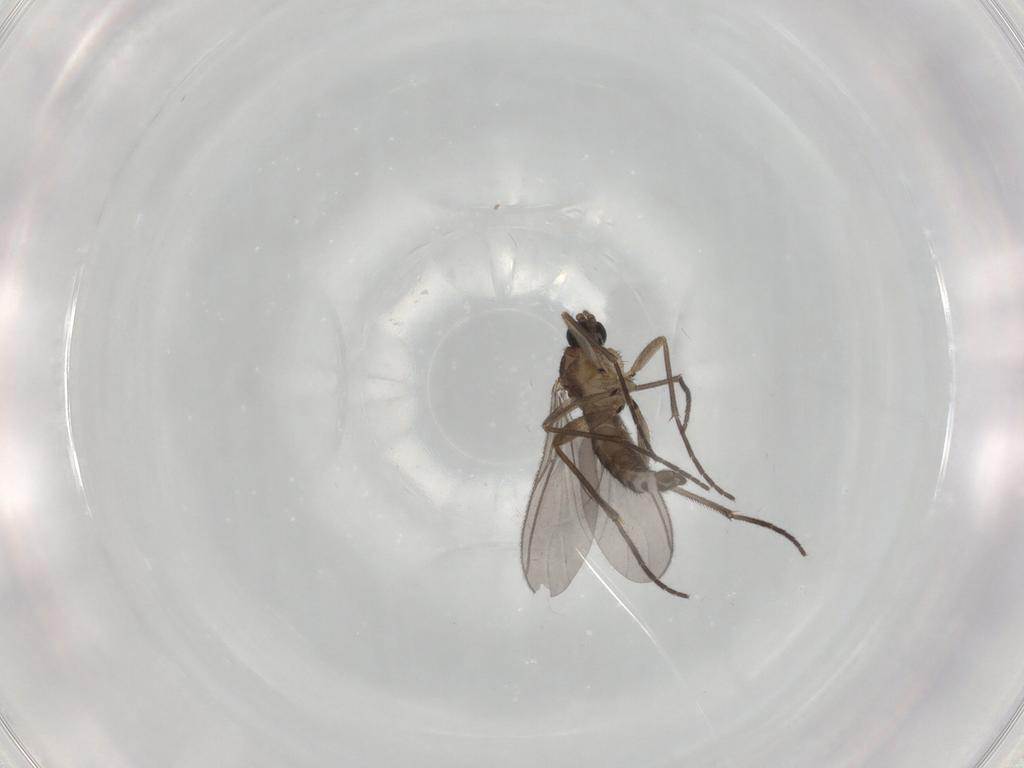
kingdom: Animalia
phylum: Arthropoda
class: Insecta
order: Diptera
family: Sciaridae
